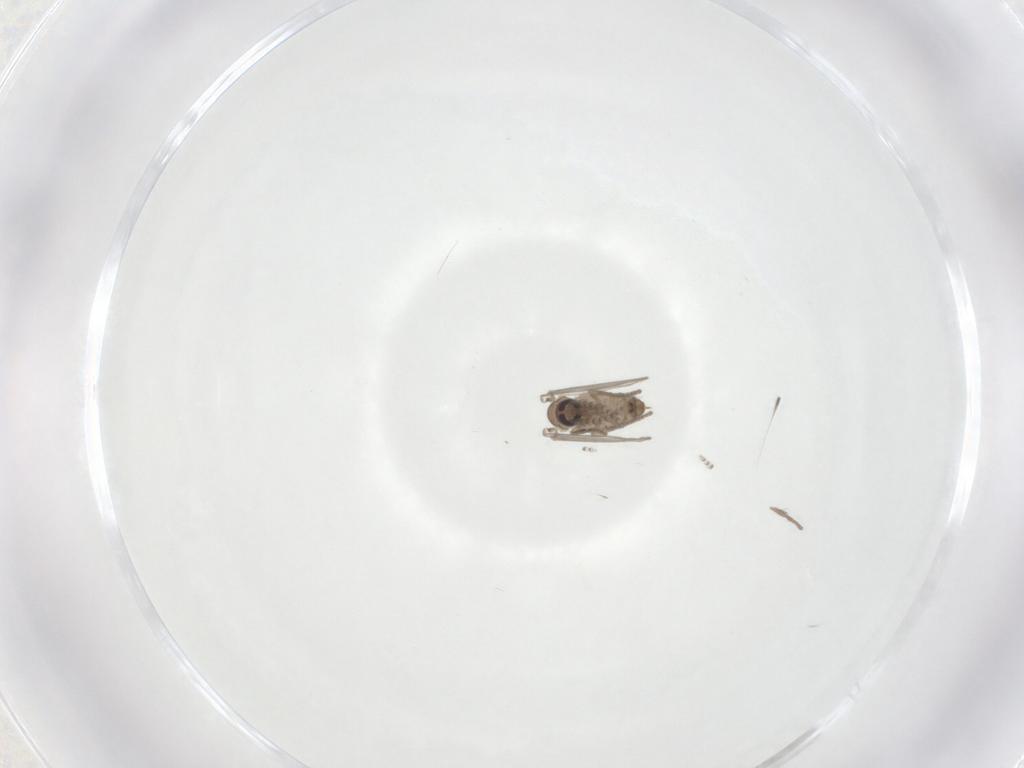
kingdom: Animalia
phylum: Arthropoda
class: Insecta
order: Diptera
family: Psychodidae
